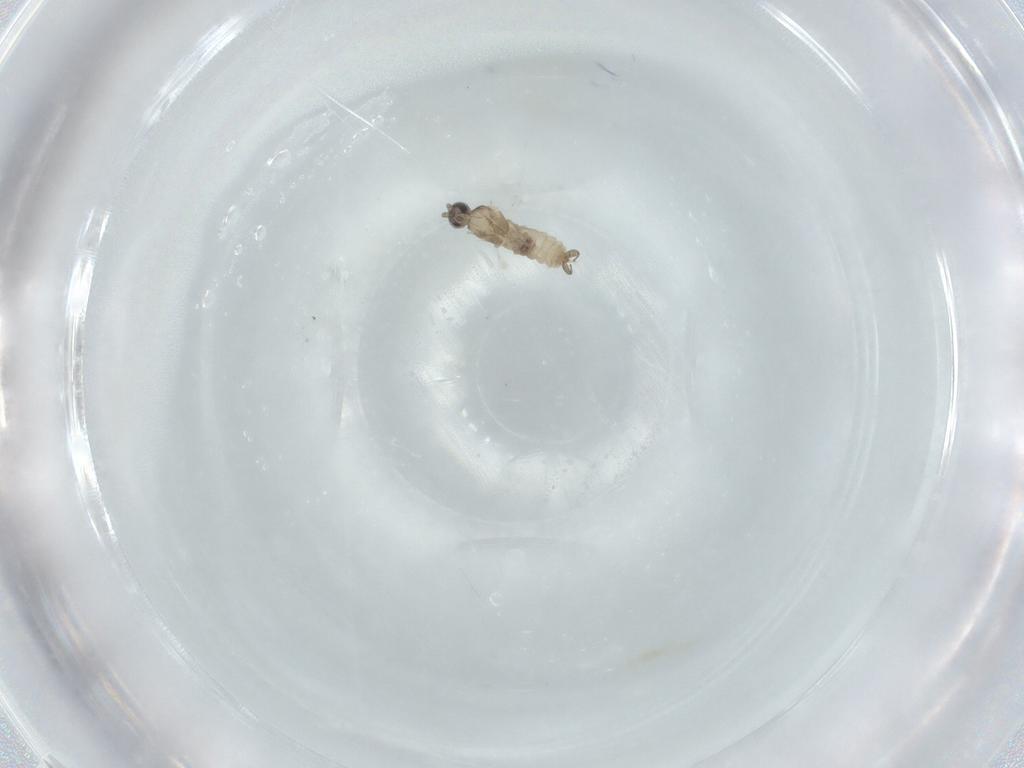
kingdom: Animalia
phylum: Arthropoda
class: Insecta
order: Diptera
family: Cecidomyiidae
